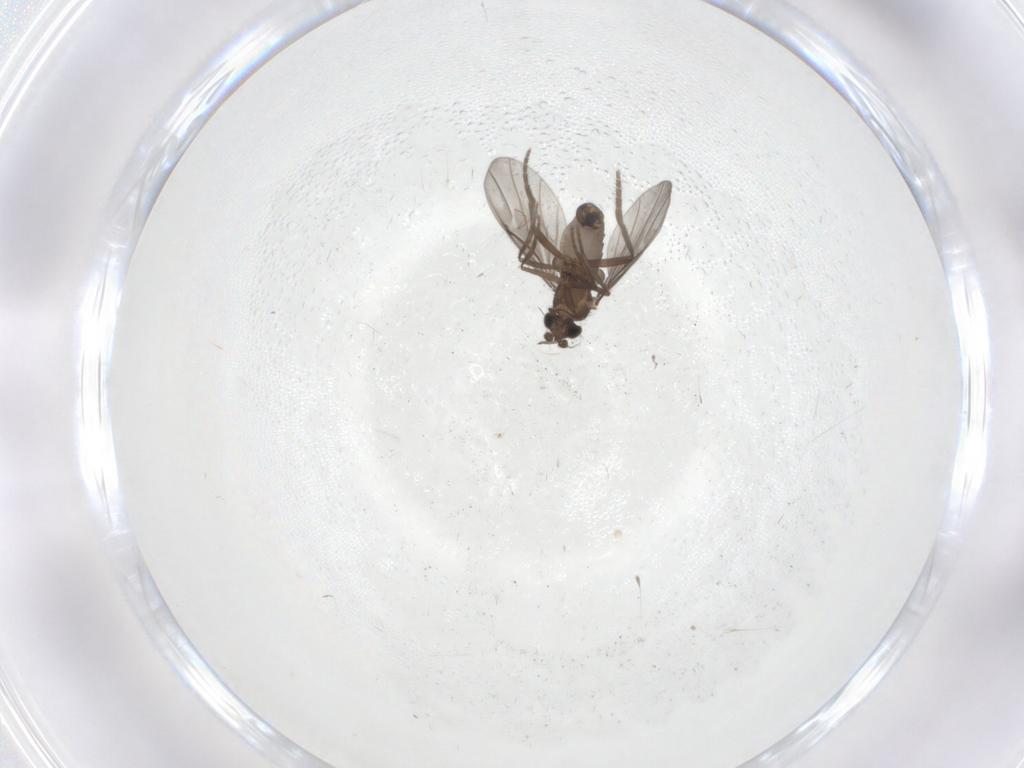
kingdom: Animalia
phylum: Arthropoda
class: Insecta
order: Diptera
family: Phoridae
